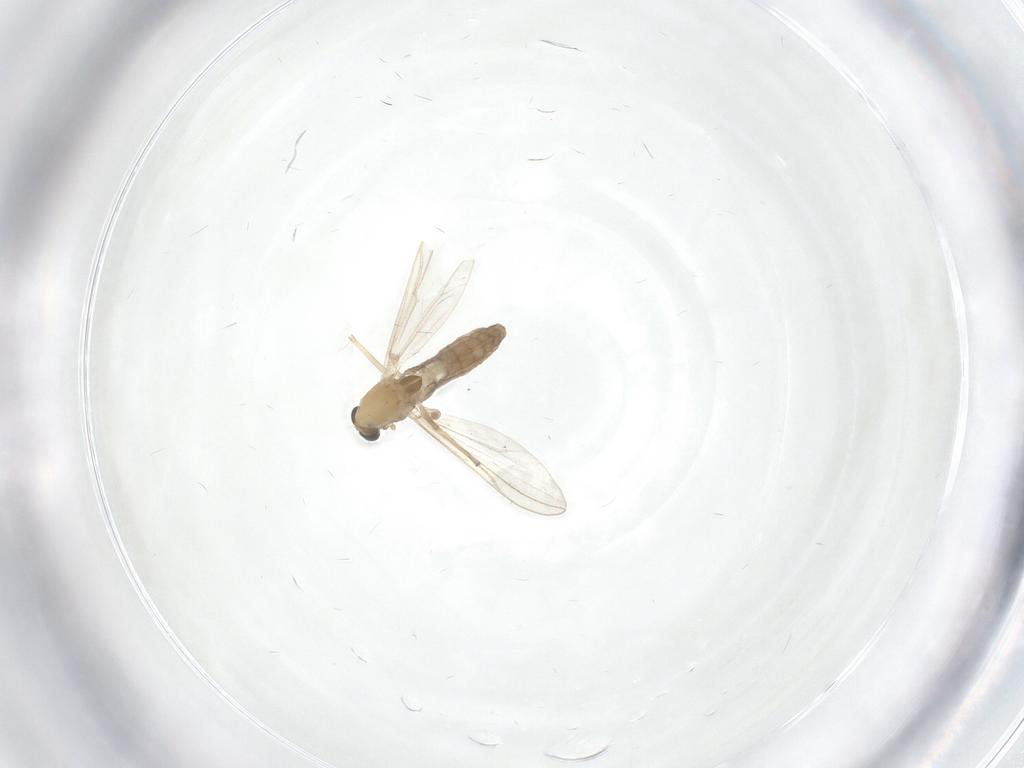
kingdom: Animalia
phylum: Arthropoda
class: Insecta
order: Diptera
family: Chironomidae
